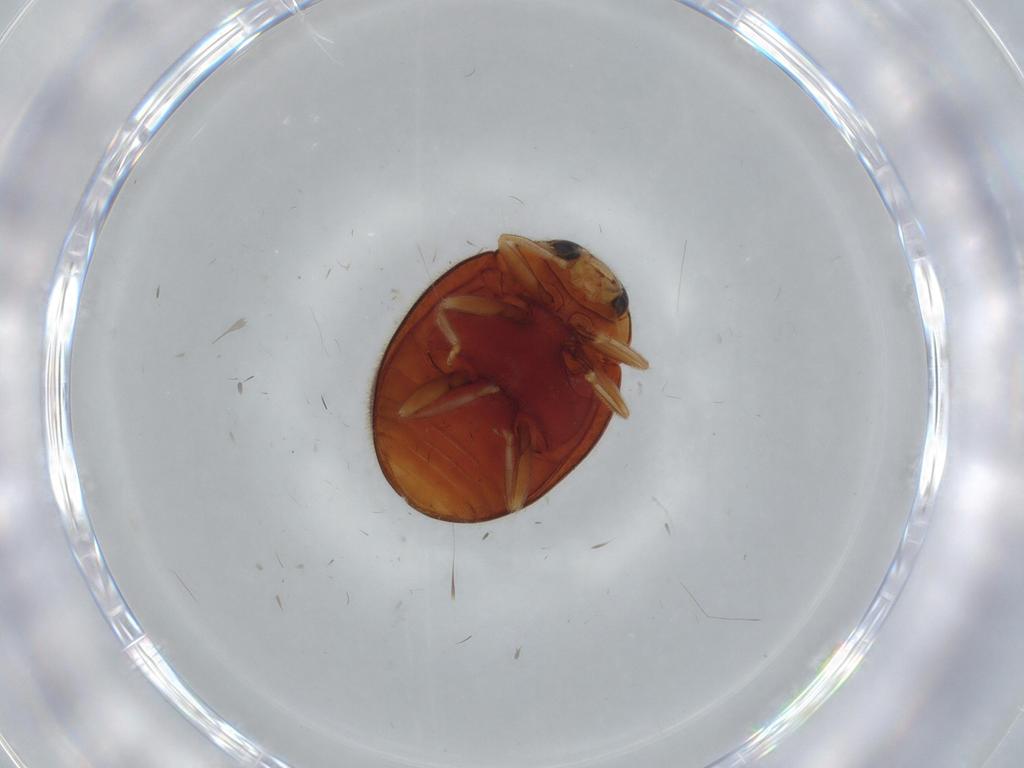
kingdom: Animalia
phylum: Arthropoda
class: Insecta
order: Coleoptera
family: Coccinellidae
